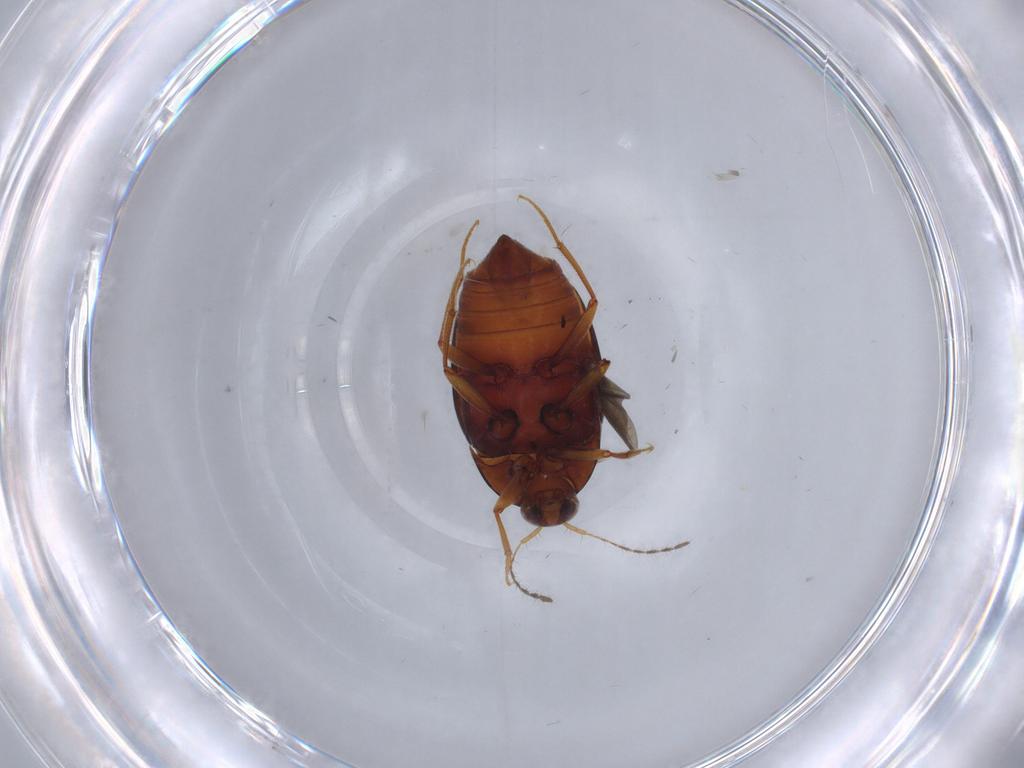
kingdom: Animalia
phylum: Arthropoda
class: Insecta
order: Coleoptera
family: Staphylinidae
